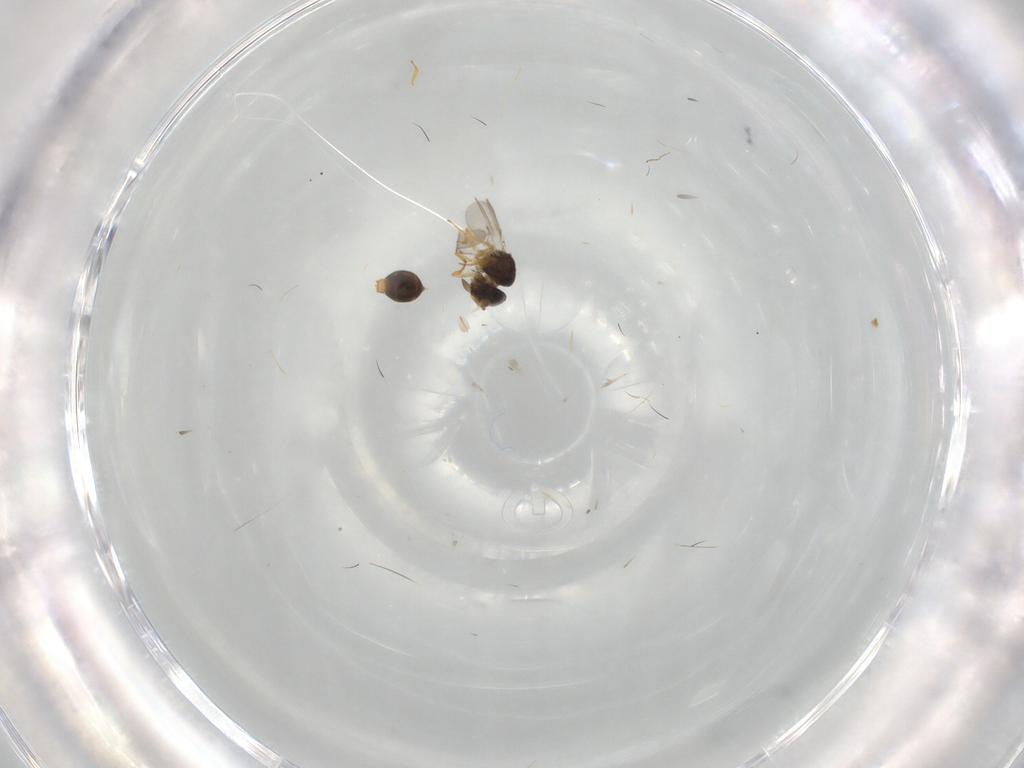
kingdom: Animalia
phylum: Arthropoda
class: Insecta
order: Hymenoptera
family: Scelionidae
